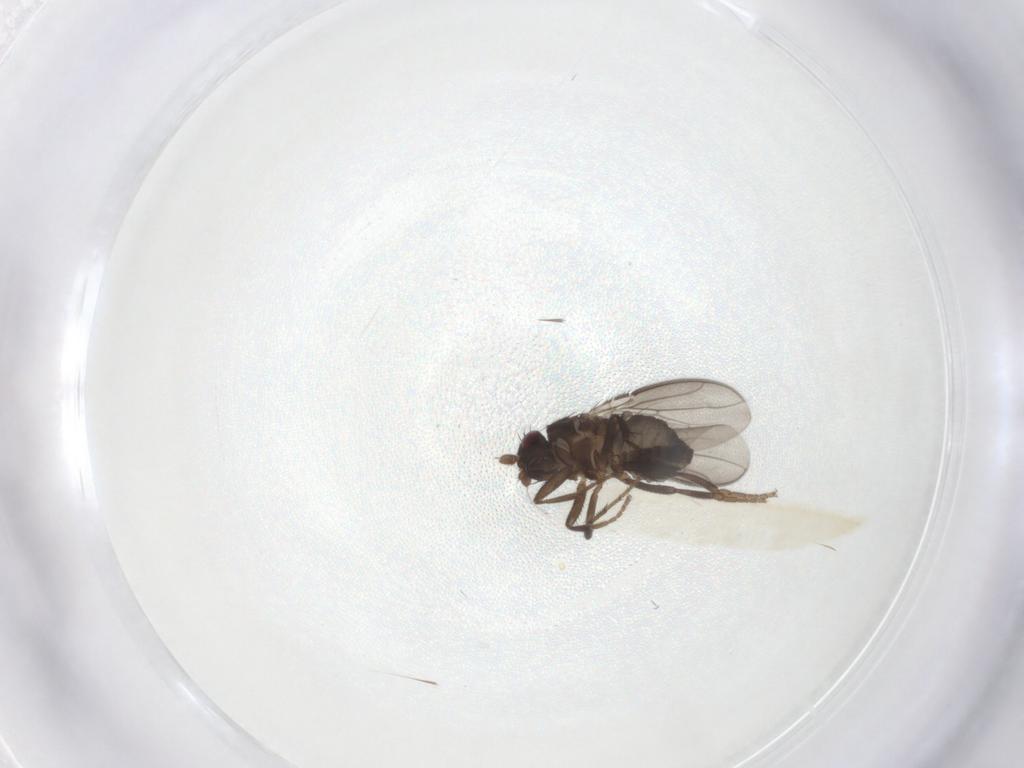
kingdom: Animalia
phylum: Arthropoda
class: Insecta
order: Diptera
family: Sphaeroceridae
